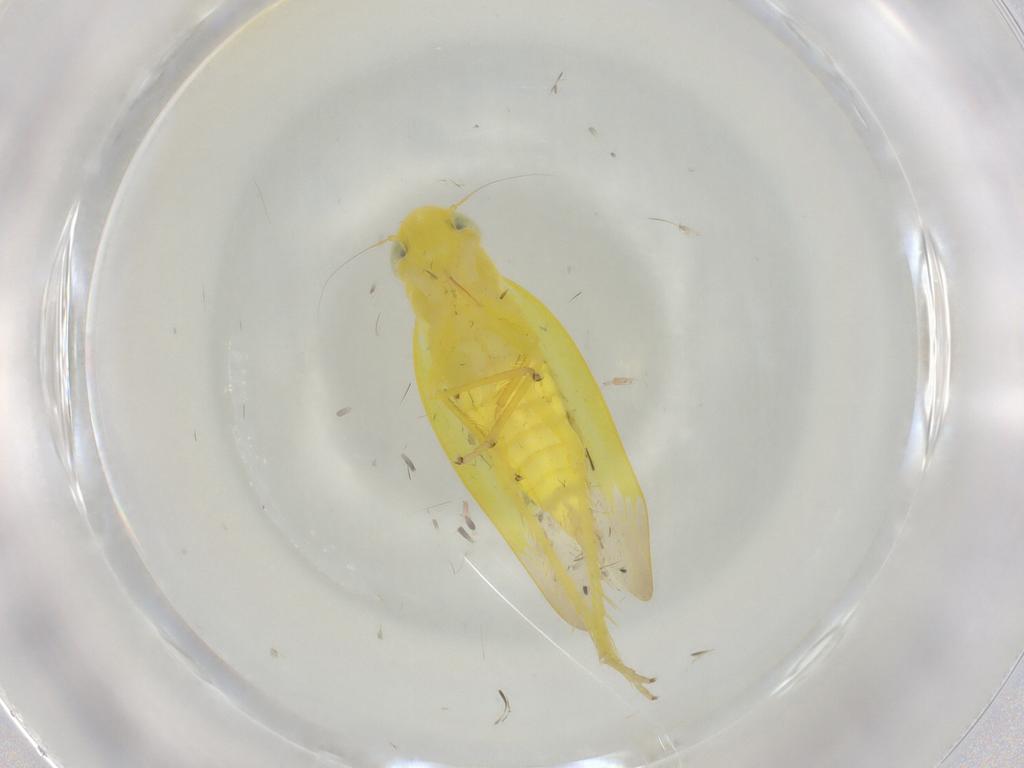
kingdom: Animalia
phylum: Arthropoda
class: Insecta
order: Hemiptera
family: Cicadellidae
